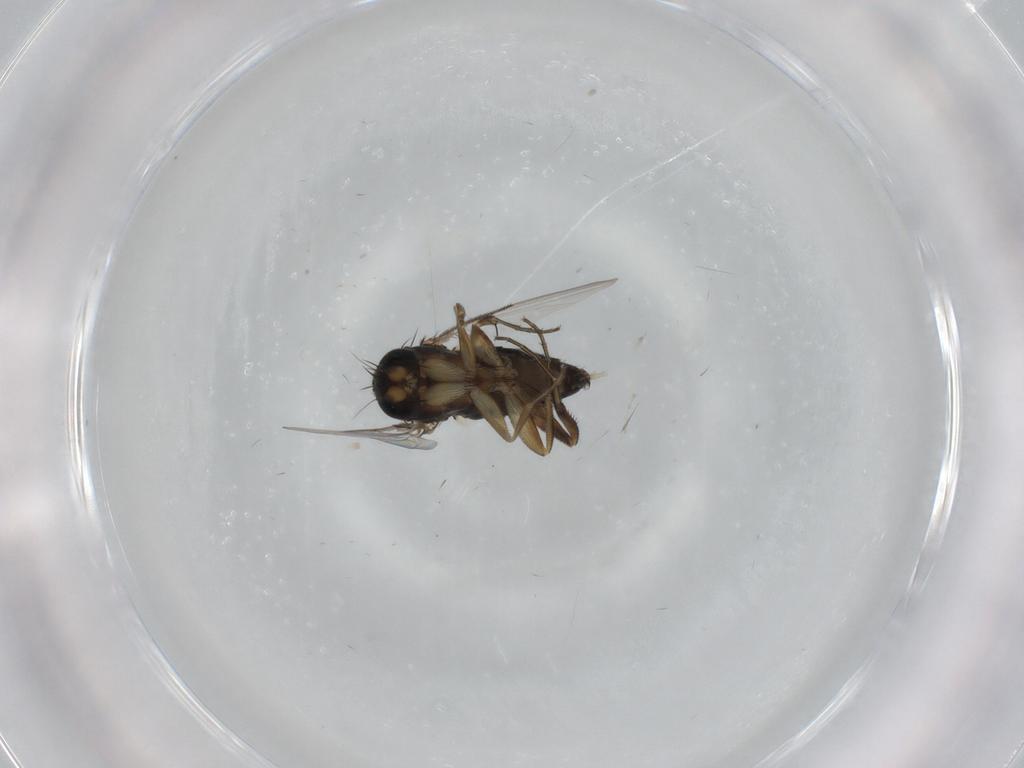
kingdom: Animalia
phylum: Arthropoda
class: Insecta
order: Diptera
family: Phoridae
